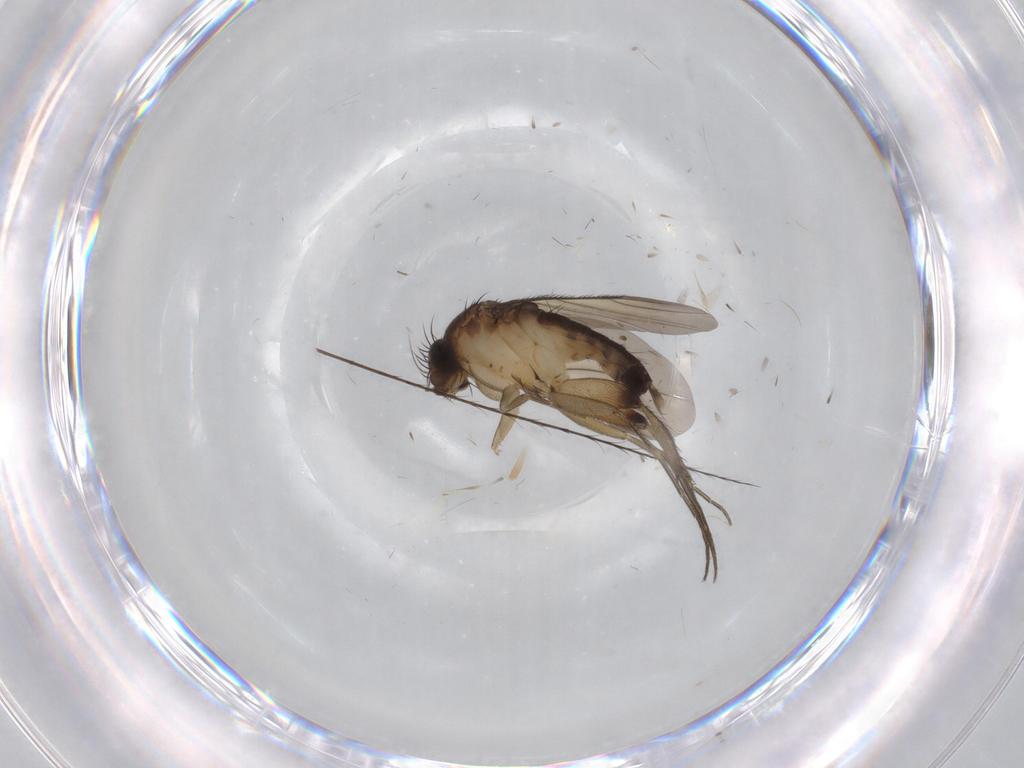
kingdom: Animalia
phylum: Arthropoda
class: Insecta
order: Diptera
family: Phoridae
